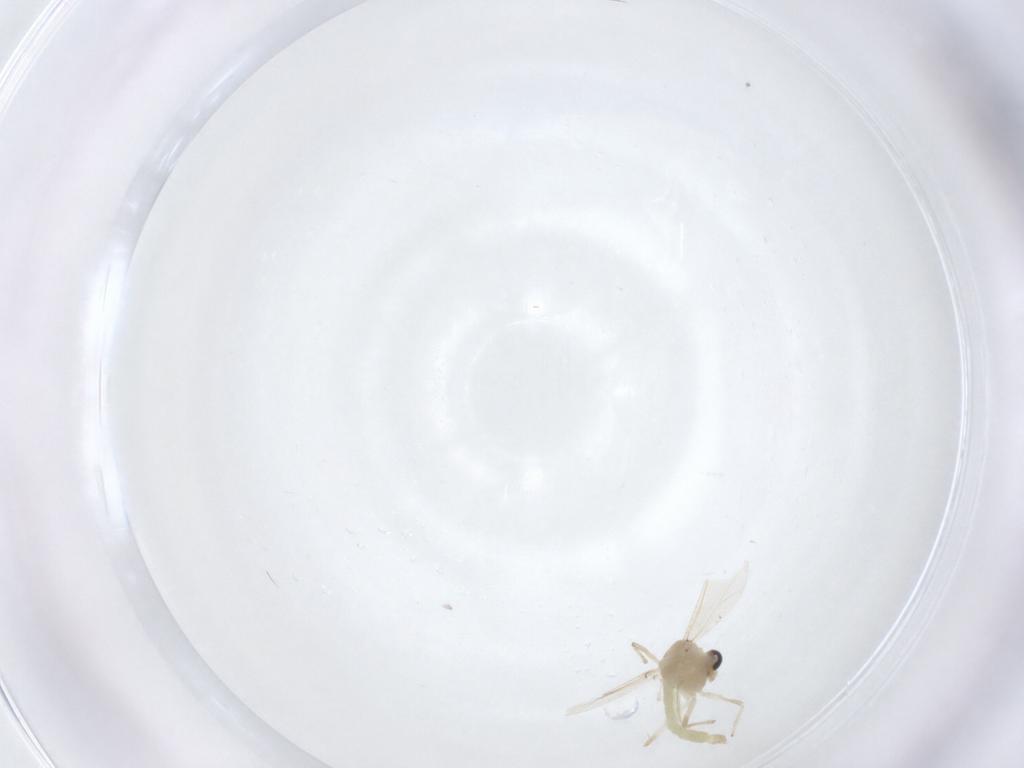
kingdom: Animalia
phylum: Arthropoda
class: Insecta
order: Diptera
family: Chironomidae
